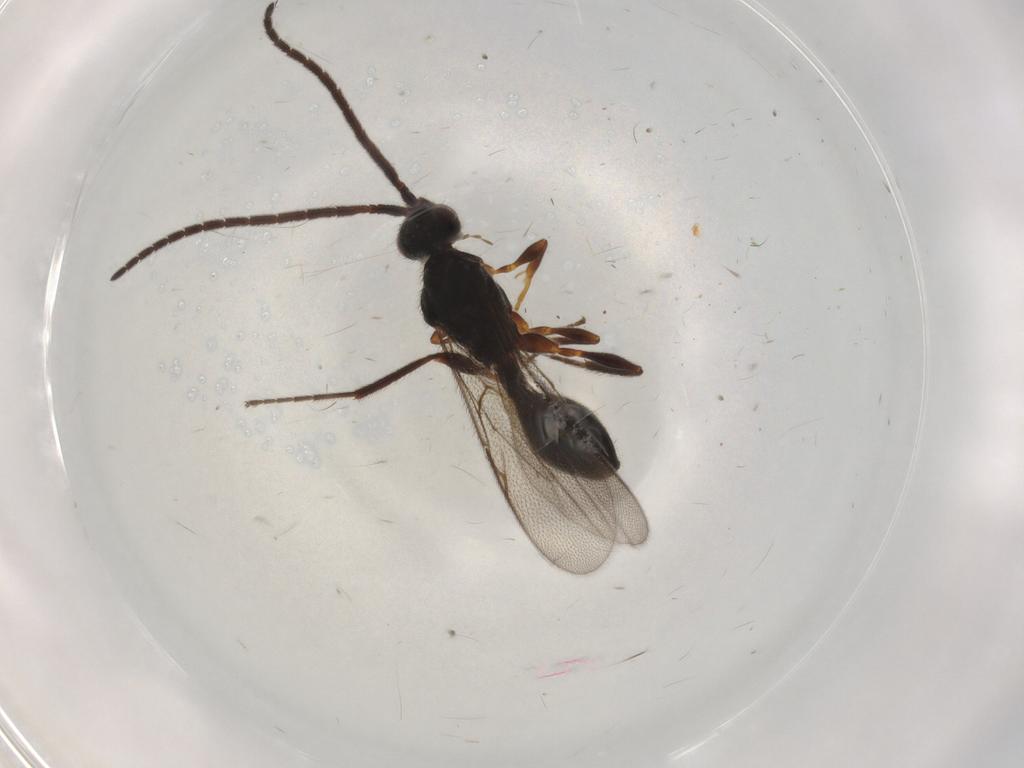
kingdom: Animalia
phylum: Arthropoda
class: Insecta
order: Hymenoptera
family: Diapriidae
